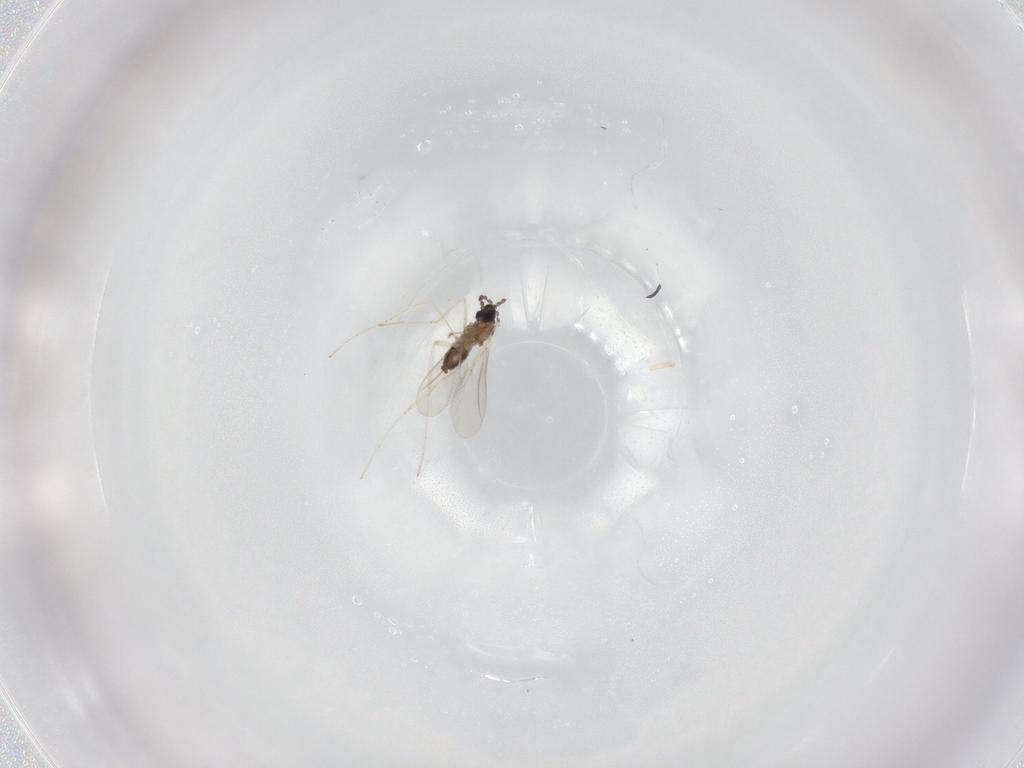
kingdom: Animalia
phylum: Arthropoda
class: Insecta
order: Diptera
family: Cecidomyiidae
